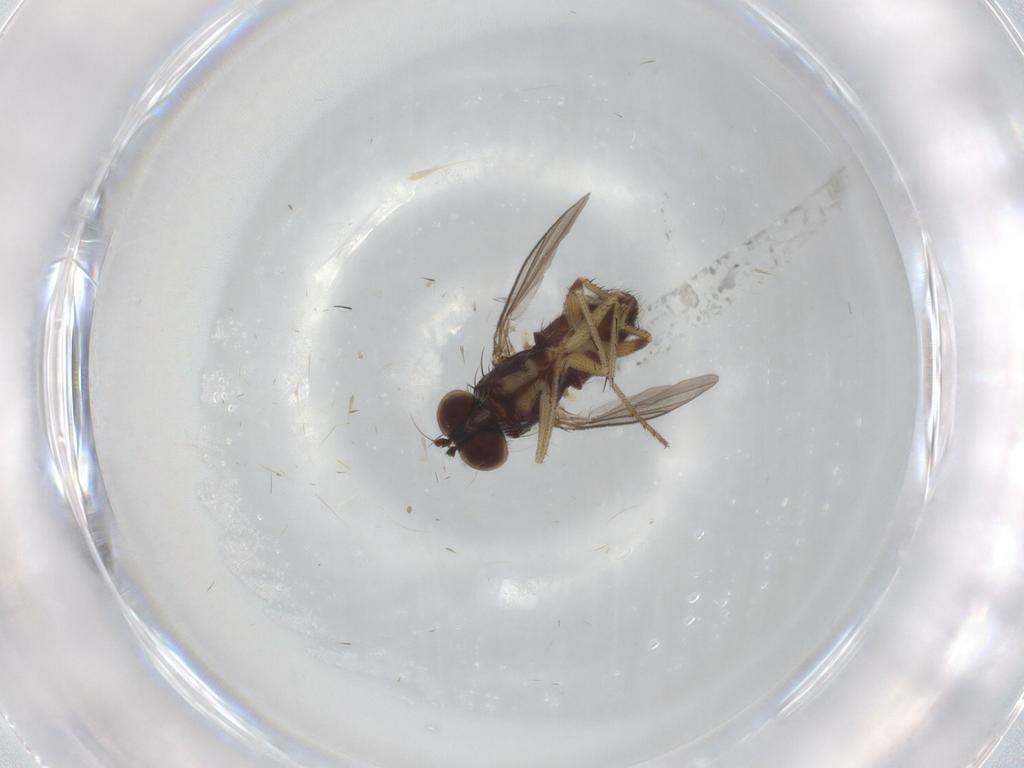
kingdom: Animalia
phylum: Arthropoda
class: Insecta
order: Diptera
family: Dolichopodidae
